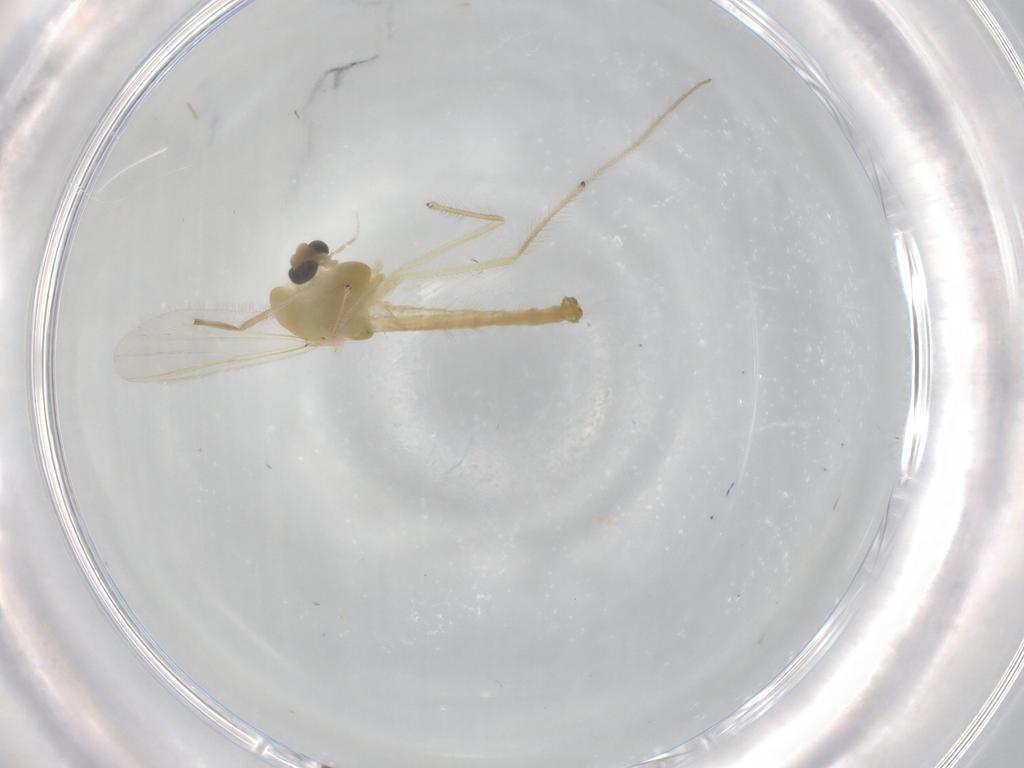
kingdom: Animalia
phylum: Arthropoda
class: Insecta
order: Diptera
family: Chironomidae
